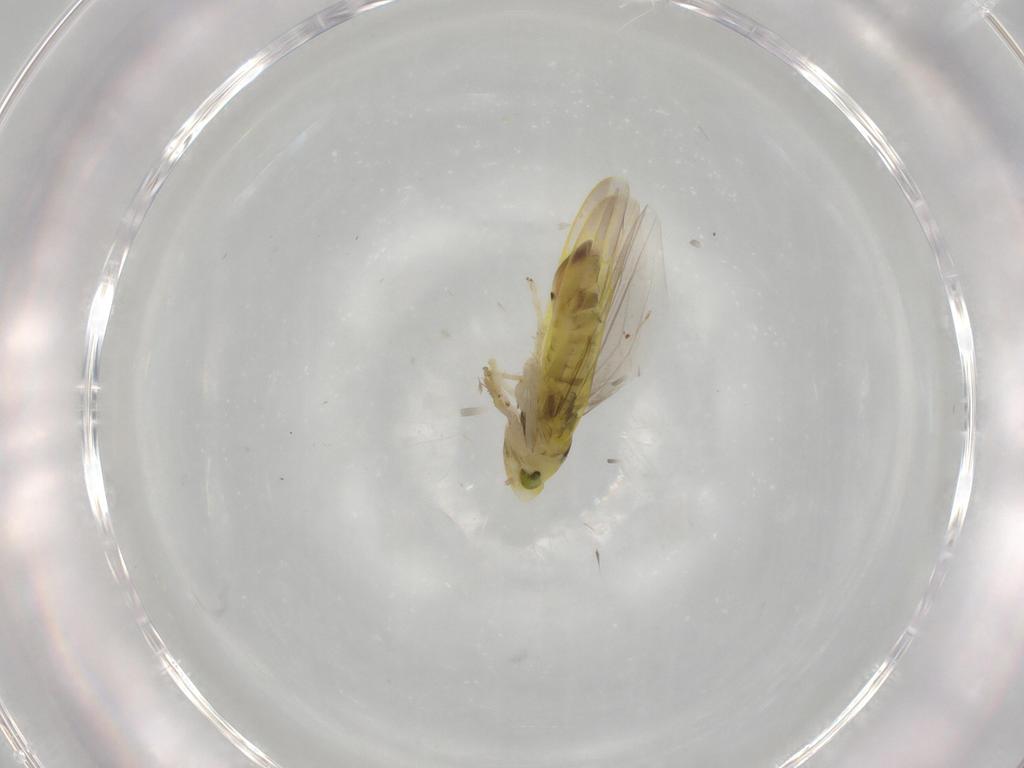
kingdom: Animalia
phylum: Arthropoda
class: Insecta
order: Hemiptera
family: Cicadellidae
